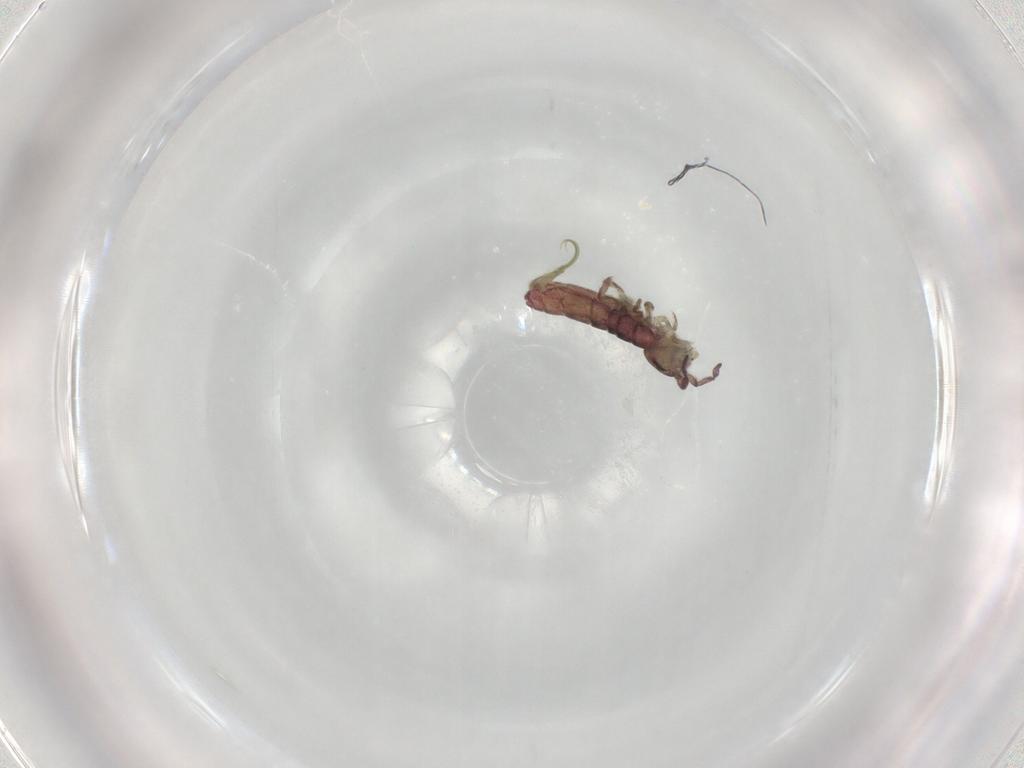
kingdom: Animalia
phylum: Arthropoda
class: Collembola
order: Entomobryomorpha
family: Isotomidae
